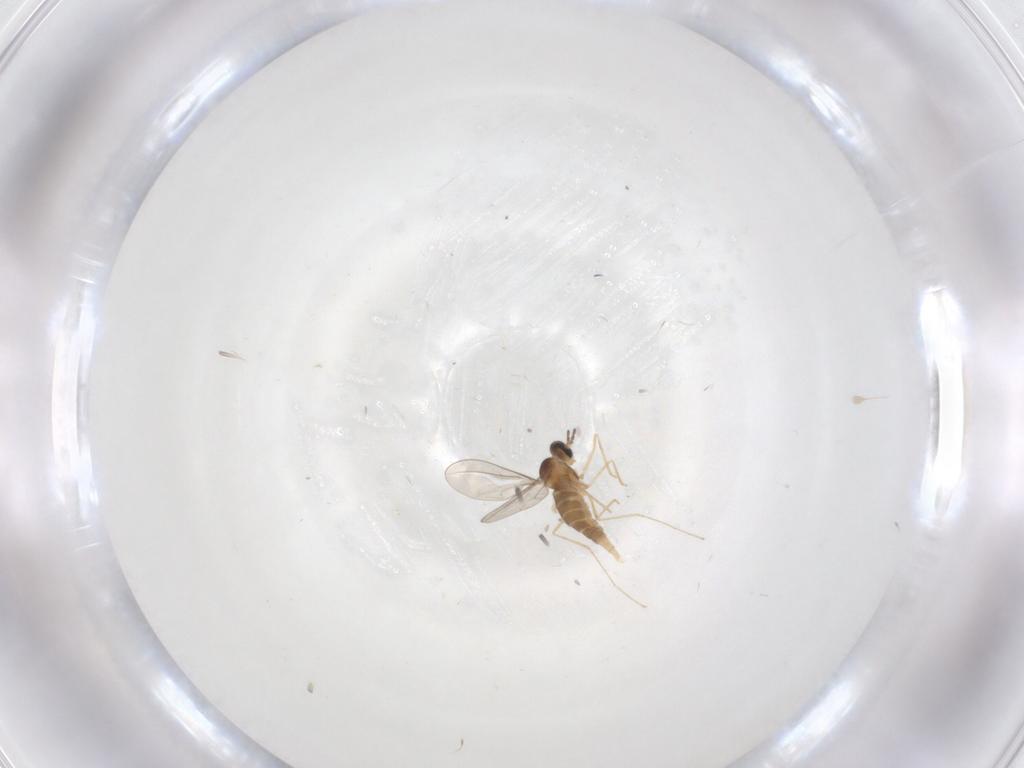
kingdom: Animalia
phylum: Arthropoda
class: Insecta
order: Diptera
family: Cecidomyiidae
